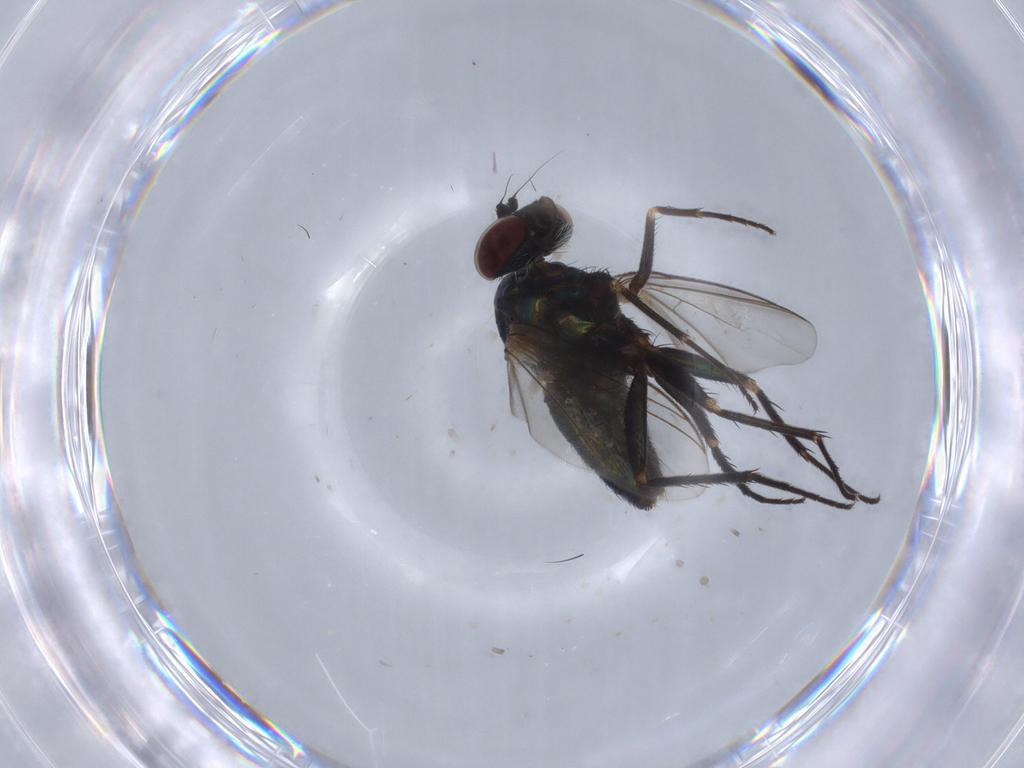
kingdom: Animalia
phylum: Arthropoda
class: Insecta
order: Diptera
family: Dolichopodidae
